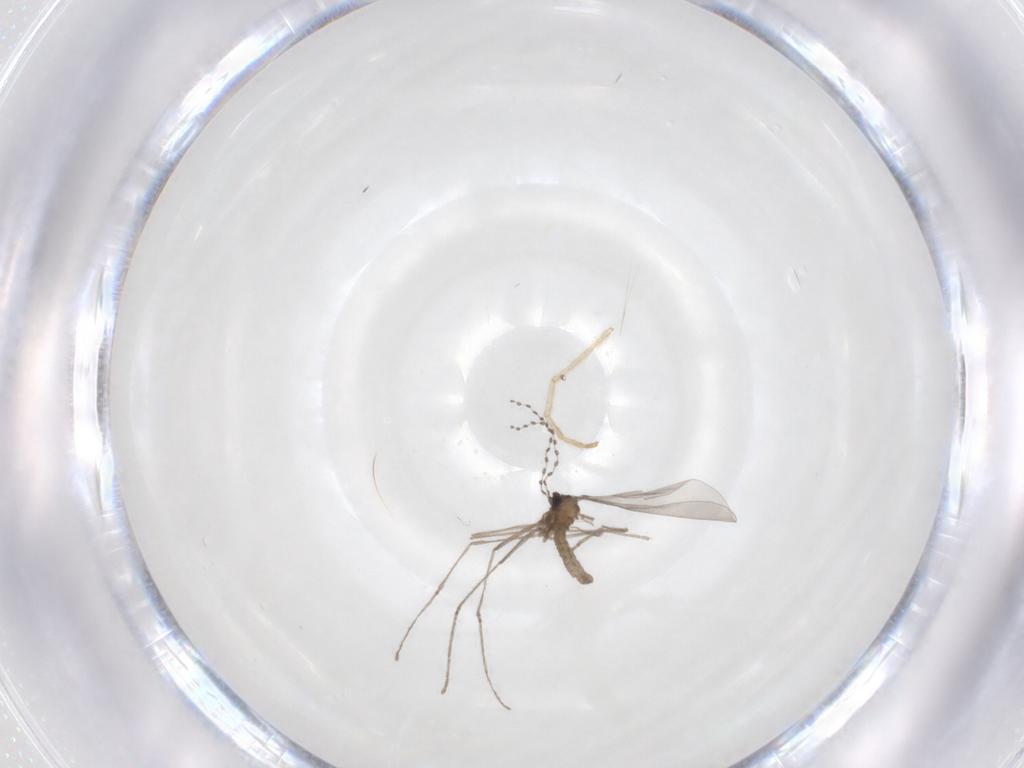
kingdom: Animalia
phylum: Arthropoda
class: Insecta
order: Diptera
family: Cecidomyiidae
